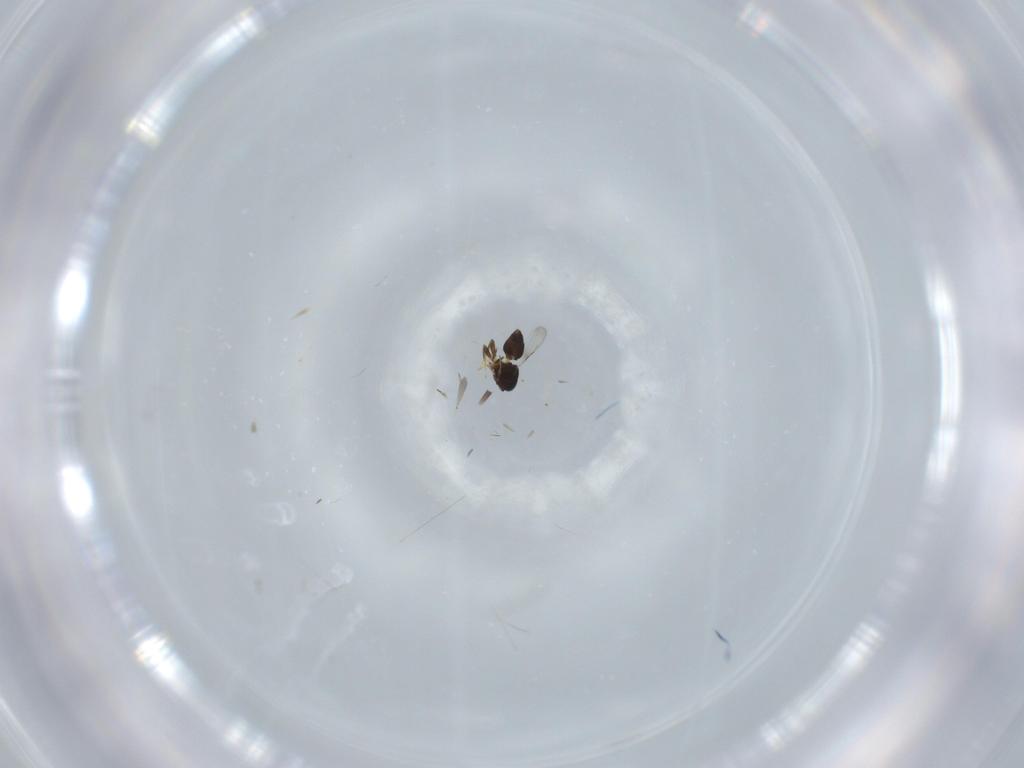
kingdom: Animalia
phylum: Arthropoda
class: Insecta
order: Hymenoptera
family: Ceraphronidae
